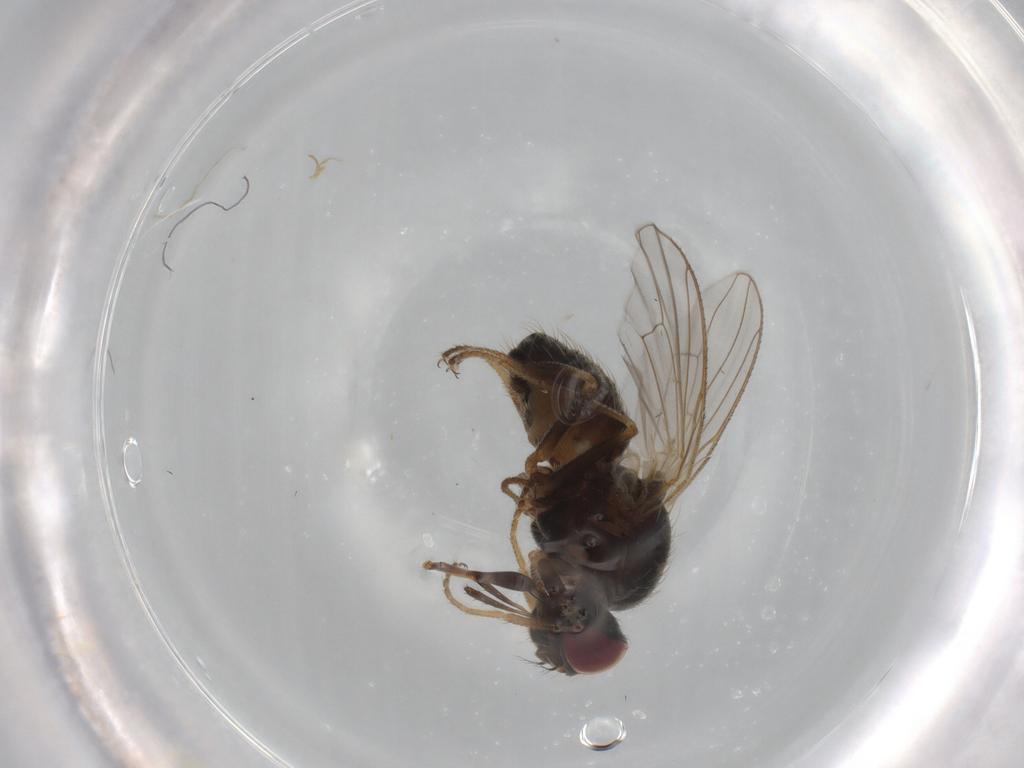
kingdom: Animalia
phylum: Arthropoda
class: Insecta
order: Diptera
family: Muscidae
